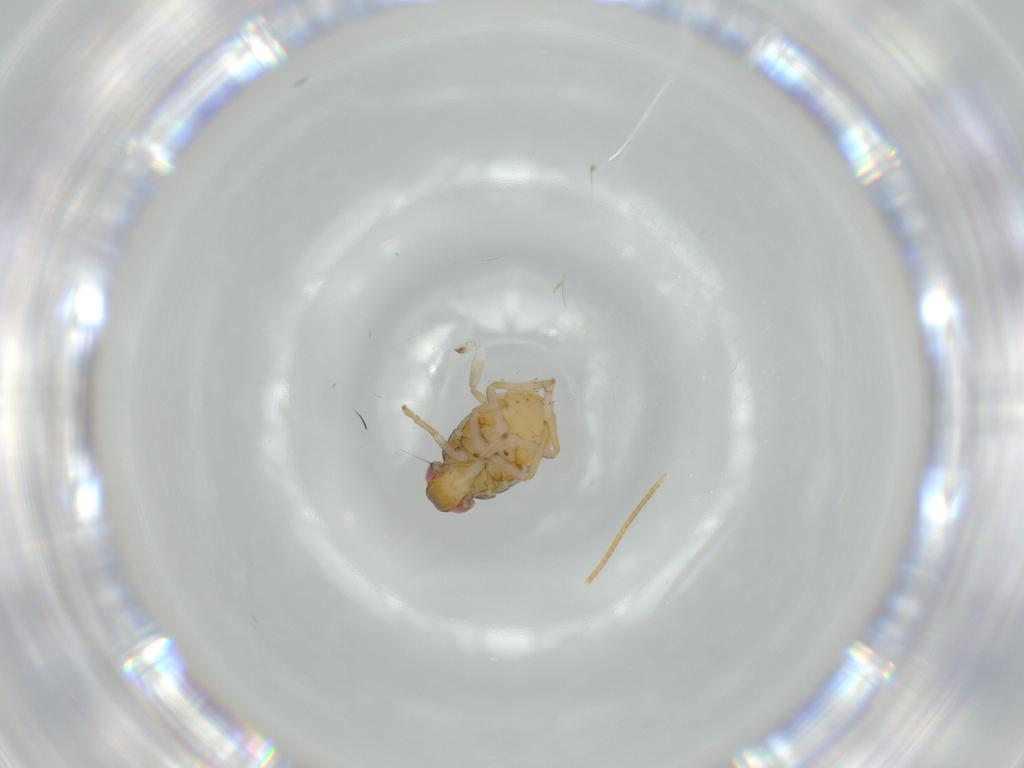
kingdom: Animalia
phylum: Arthropoda
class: Insecta
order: Hemiptera
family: Issidae
